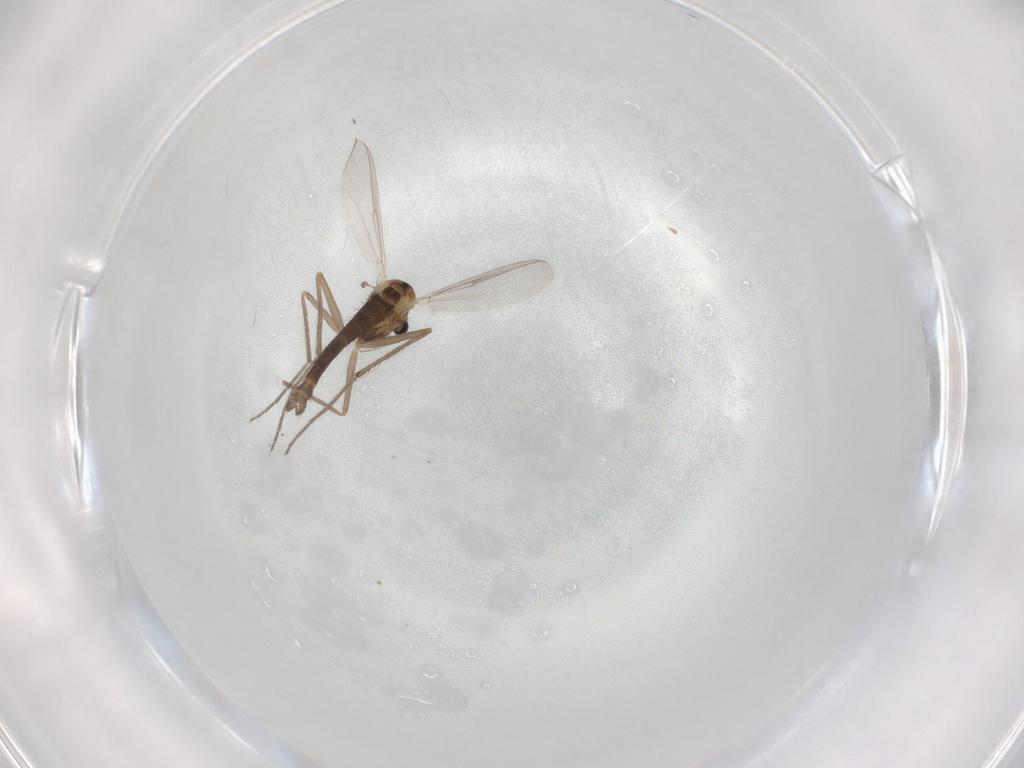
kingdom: Animalia
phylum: Arthropoda
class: Insecta
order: Diptera
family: Chironomidae
